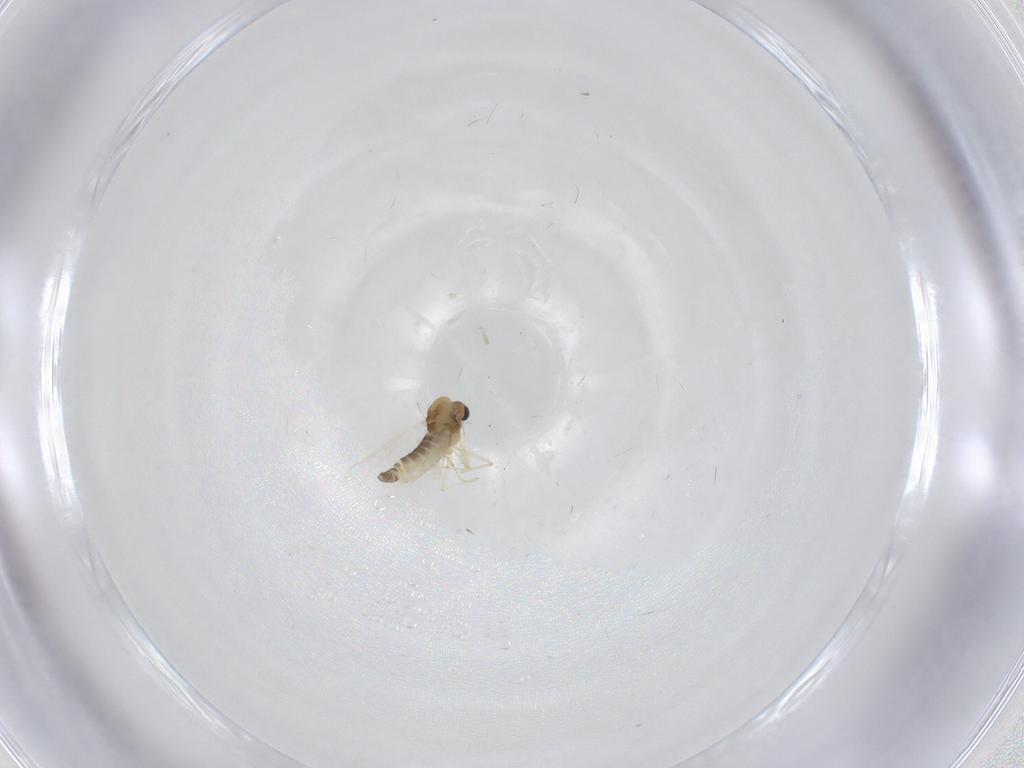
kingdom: Animalia
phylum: Arthropoda
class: Insecta
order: Diptera
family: Chironomidae
